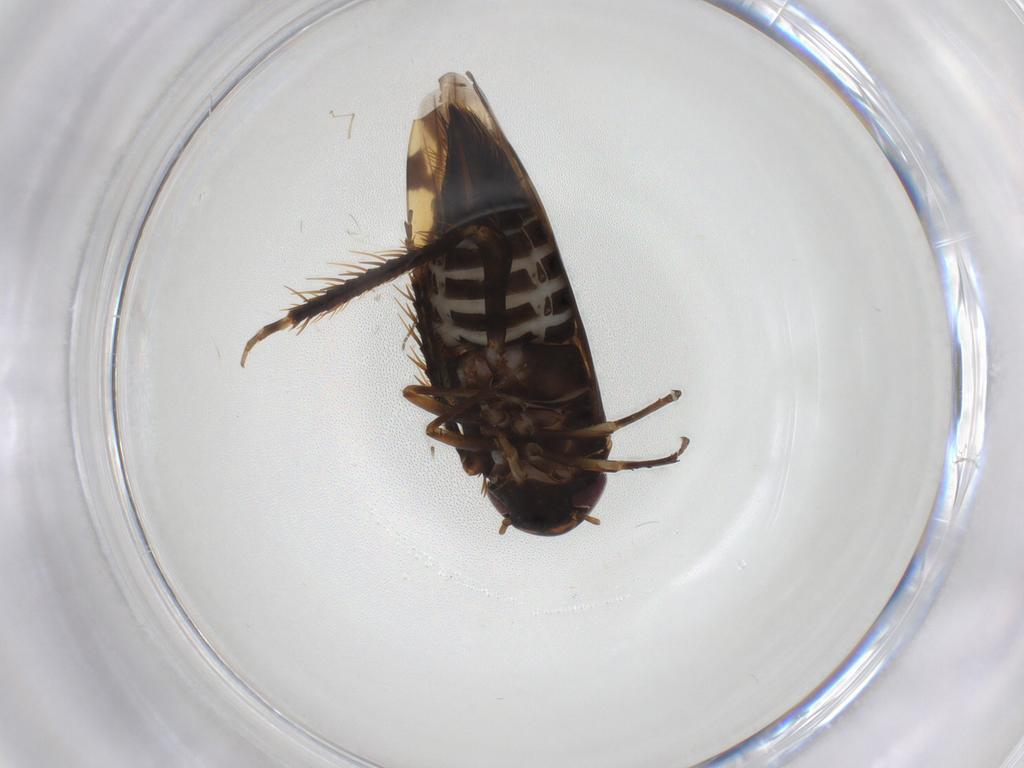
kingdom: Animalia
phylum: Arthropoda
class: Insecta
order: Hemiptera
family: Cicadellidae
